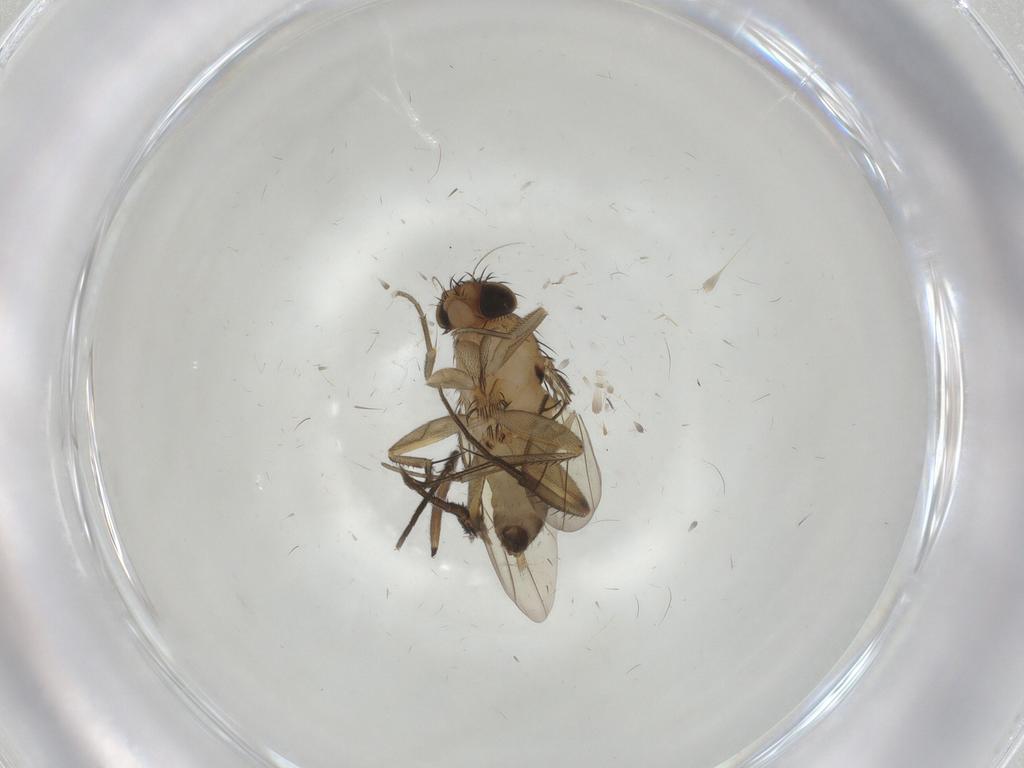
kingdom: Animalia
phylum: Arthropoda
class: Insecta
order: Diptera
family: Phoridae
